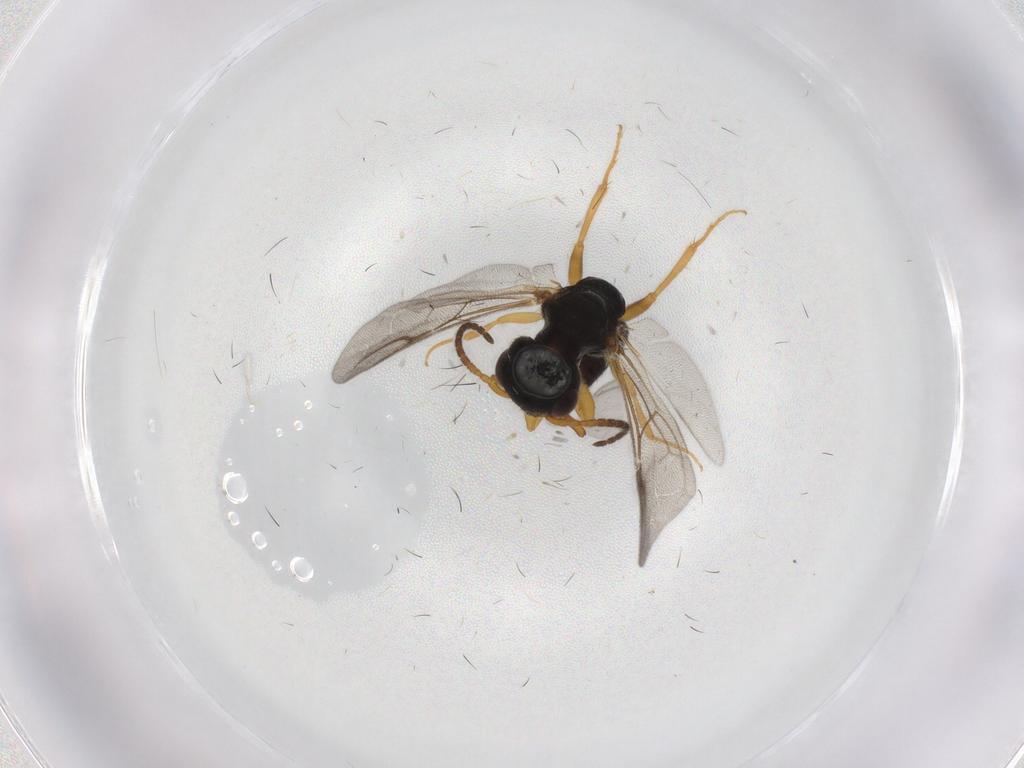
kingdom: Animalia
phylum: Arthropoda
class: Insecta
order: Hymenoptera
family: Bethylidae
